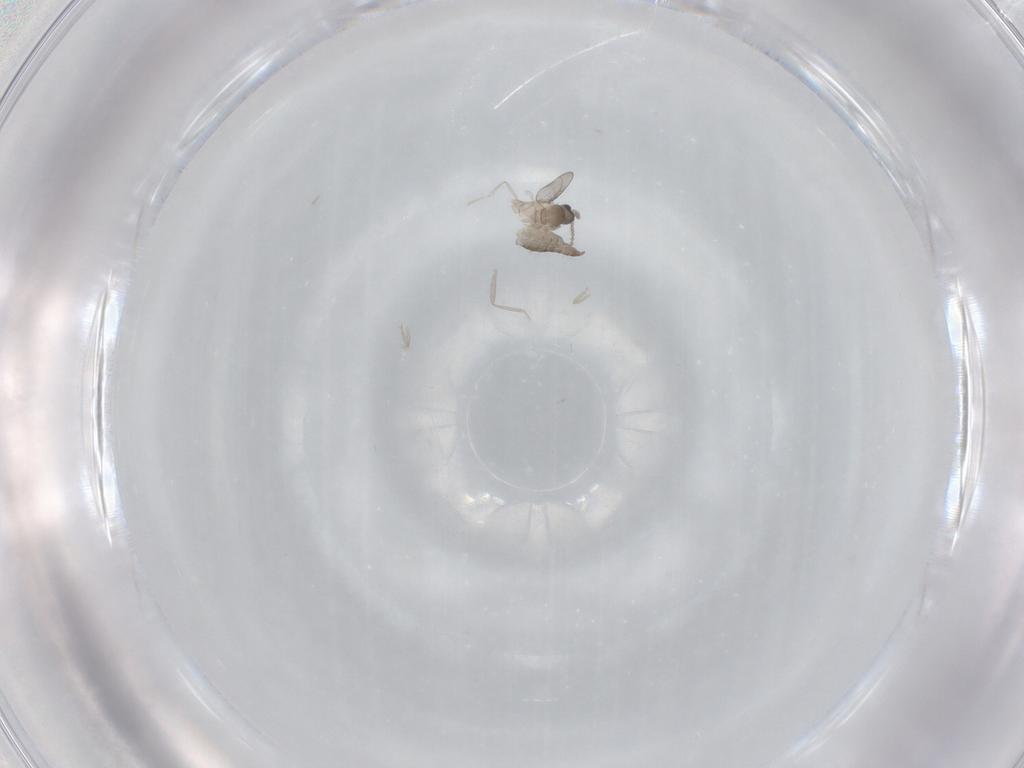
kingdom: Animalia
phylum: Arthropoda
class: Insecta
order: Diptera
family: Cecidomyiidae
